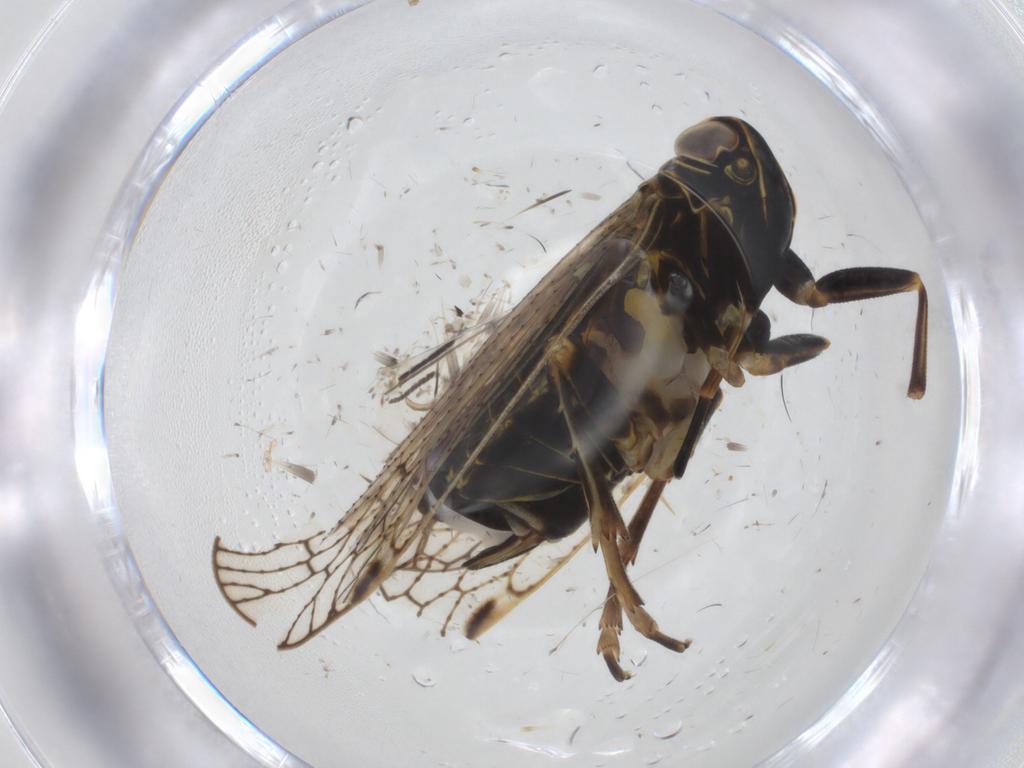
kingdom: Animalia
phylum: Arthropoda
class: Insecta
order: Hemiptera
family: Cixiidae
